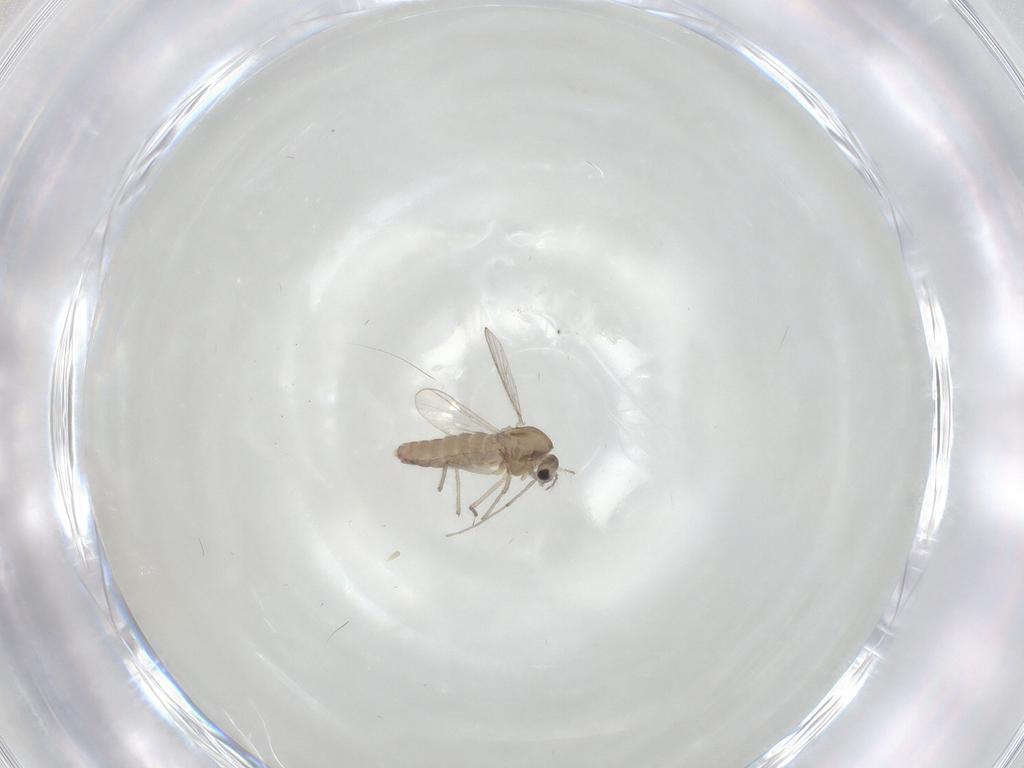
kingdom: Animalia
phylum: Arthropoda
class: Insecta
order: Diptera
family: Chironomidae
